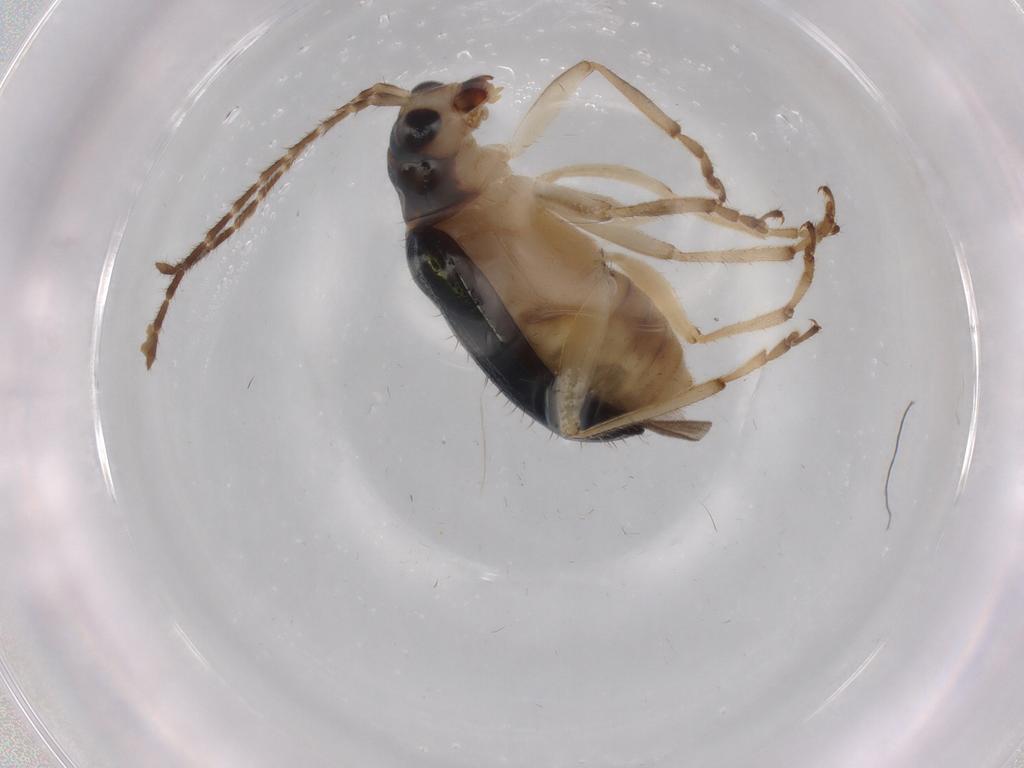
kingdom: Animalia
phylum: Arthropoda
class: Insecta
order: Coleoptera
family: Chrysomelidae
